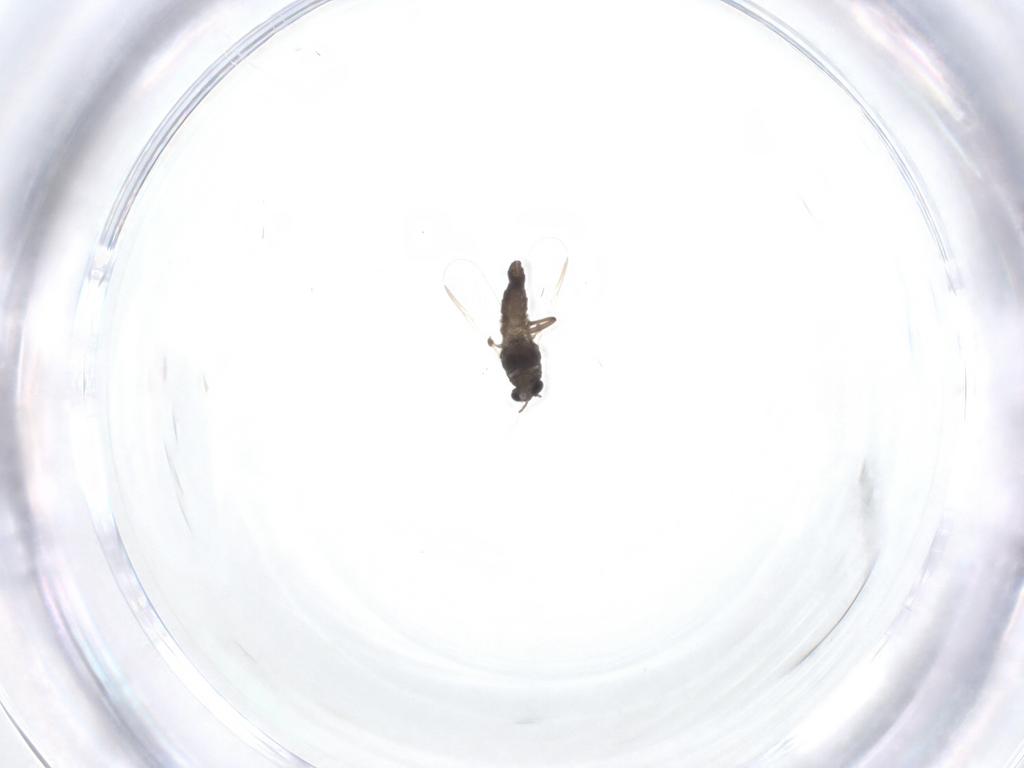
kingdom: Animalia
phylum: Arthropoda
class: Insecta
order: Diptera
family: Chironomidae
